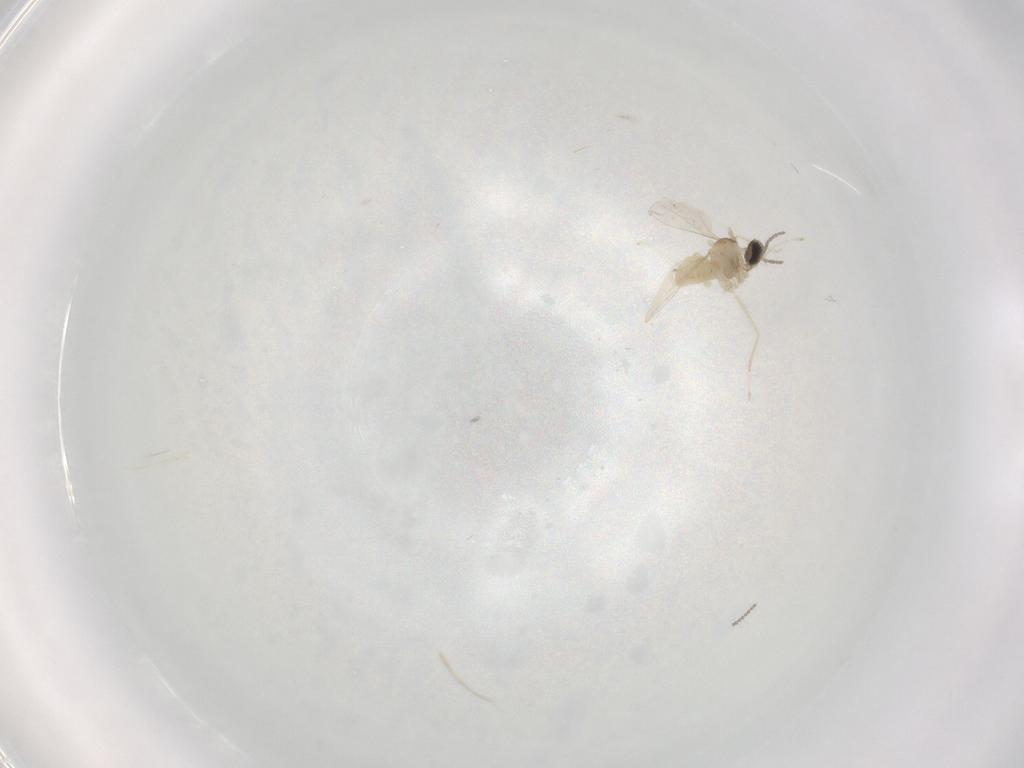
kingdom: Animalia
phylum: Arthropoda
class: Insecta
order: Diptera
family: Cecidomyiidae
